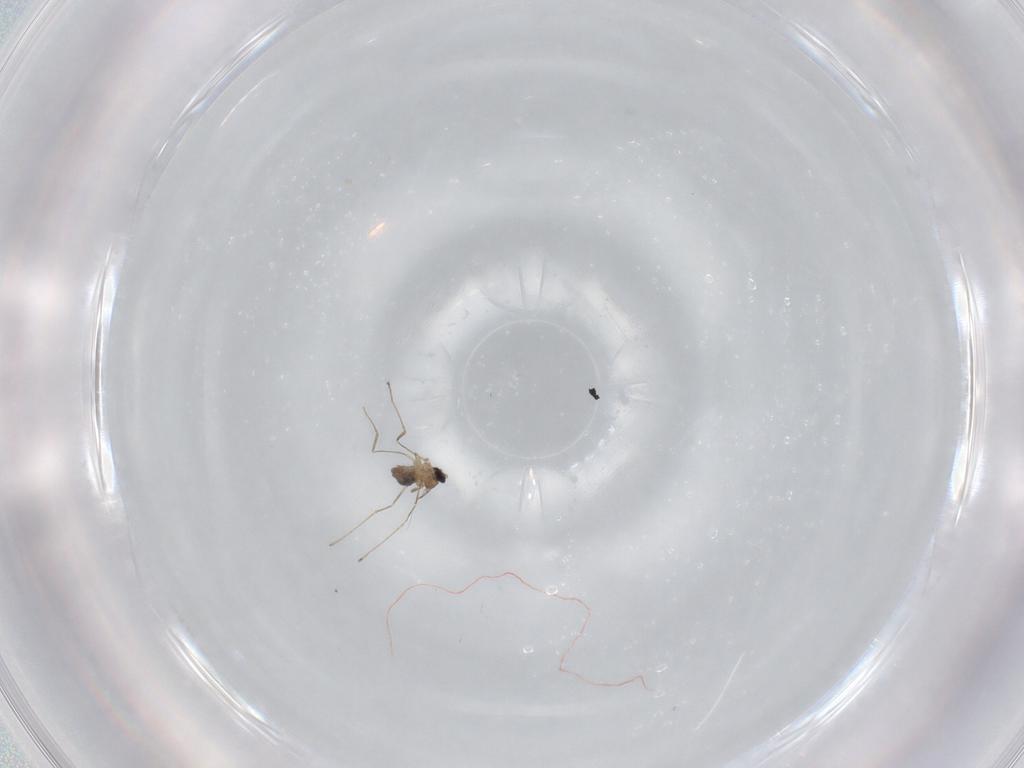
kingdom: Animalia
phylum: Arthropoda
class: Insecta
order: Diptera
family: Cecidomyiidae
